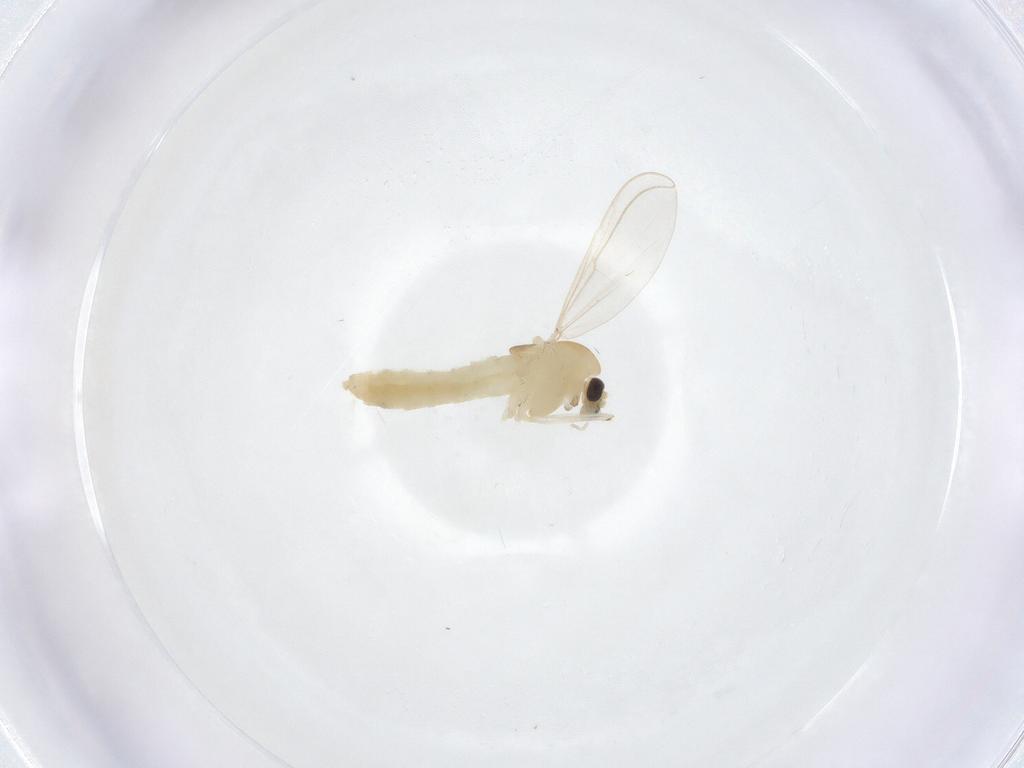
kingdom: Animalia
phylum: Arthropoda
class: Insecta
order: Diptera
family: Chironomidae
